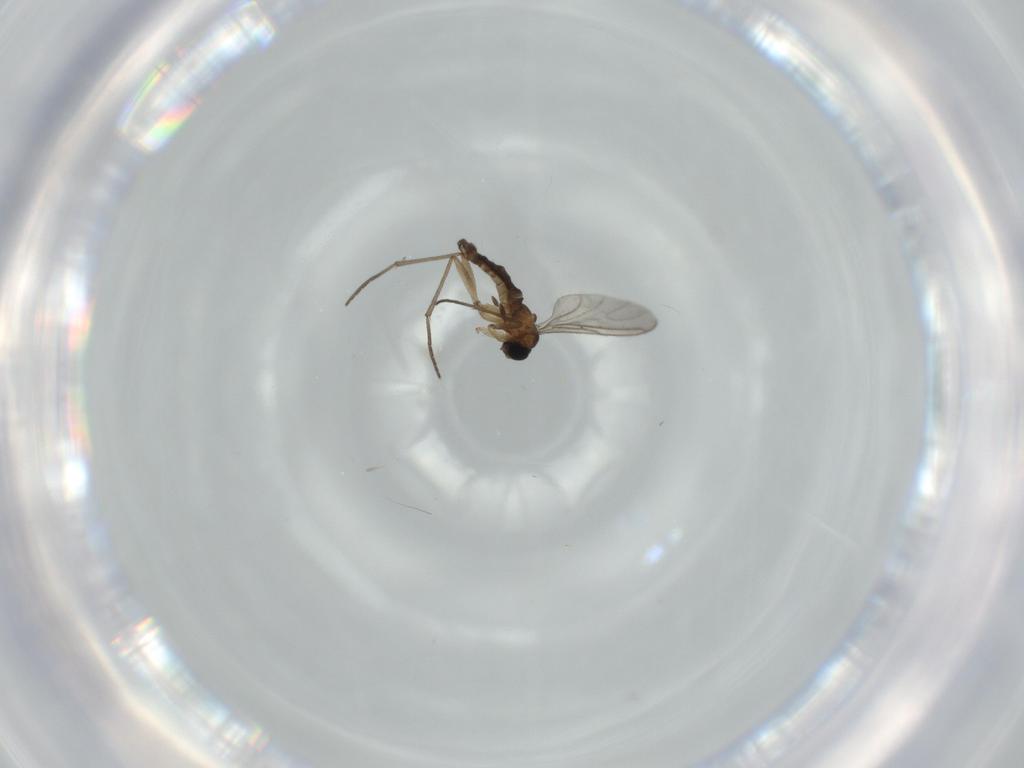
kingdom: Animalia
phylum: Arthropoda
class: Insecta
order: Diptera
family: Sciaridae
